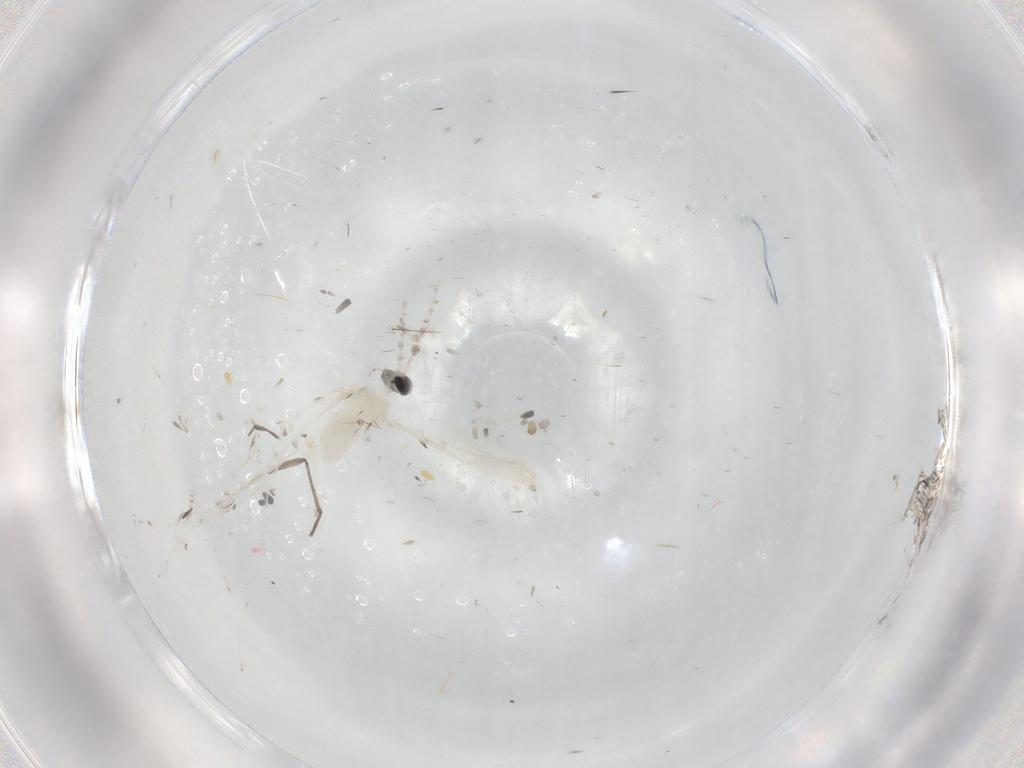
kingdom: Animalia
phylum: Arthropoda
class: Insecta
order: Diptera
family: Cecidomyiidae
